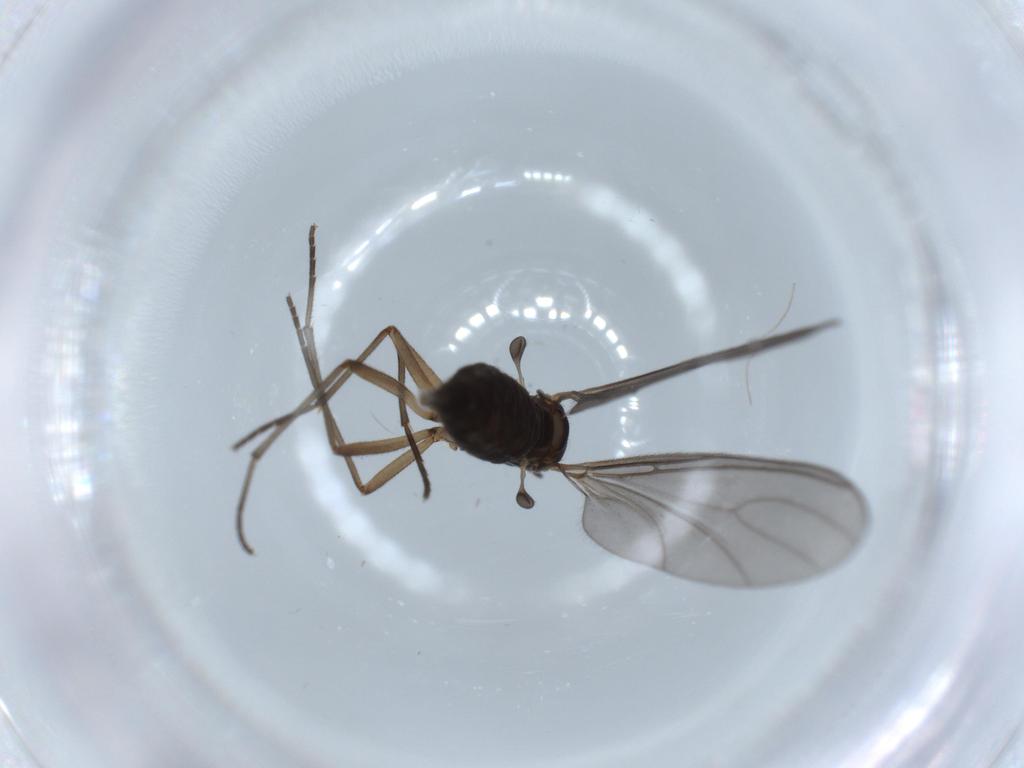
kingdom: Animalia
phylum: Arthropoda
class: Insecta
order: Diptera
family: Sciaridae
